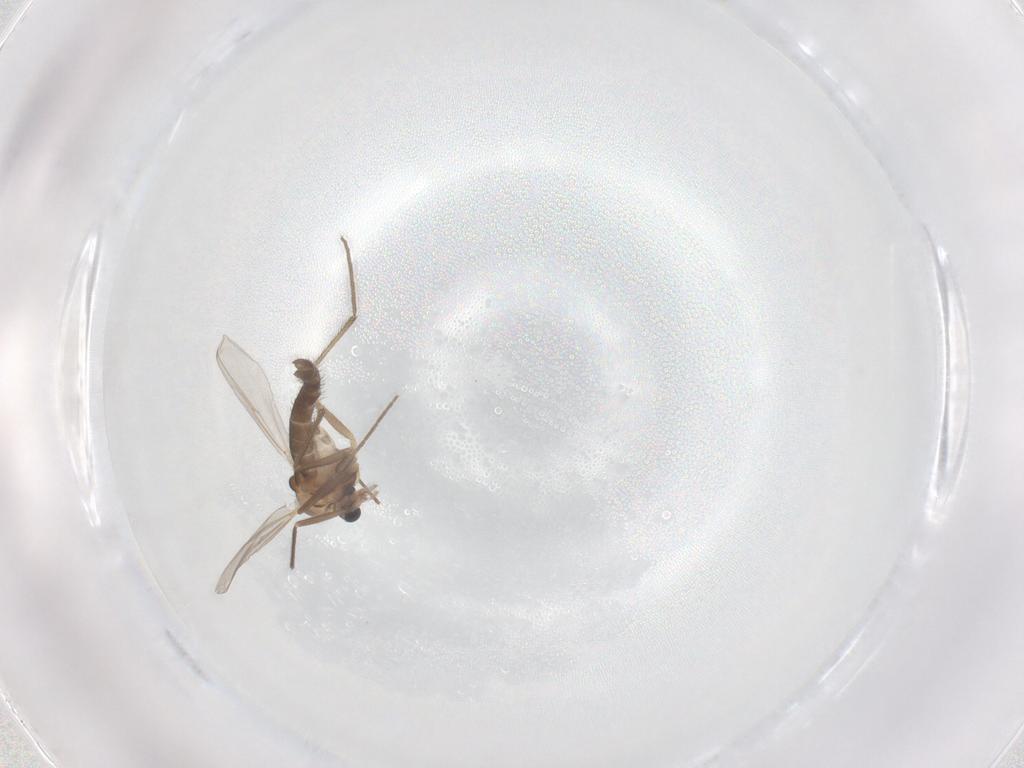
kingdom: Animalia
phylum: Arthropoda
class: Insecta
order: Diptera
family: Chironomidae
